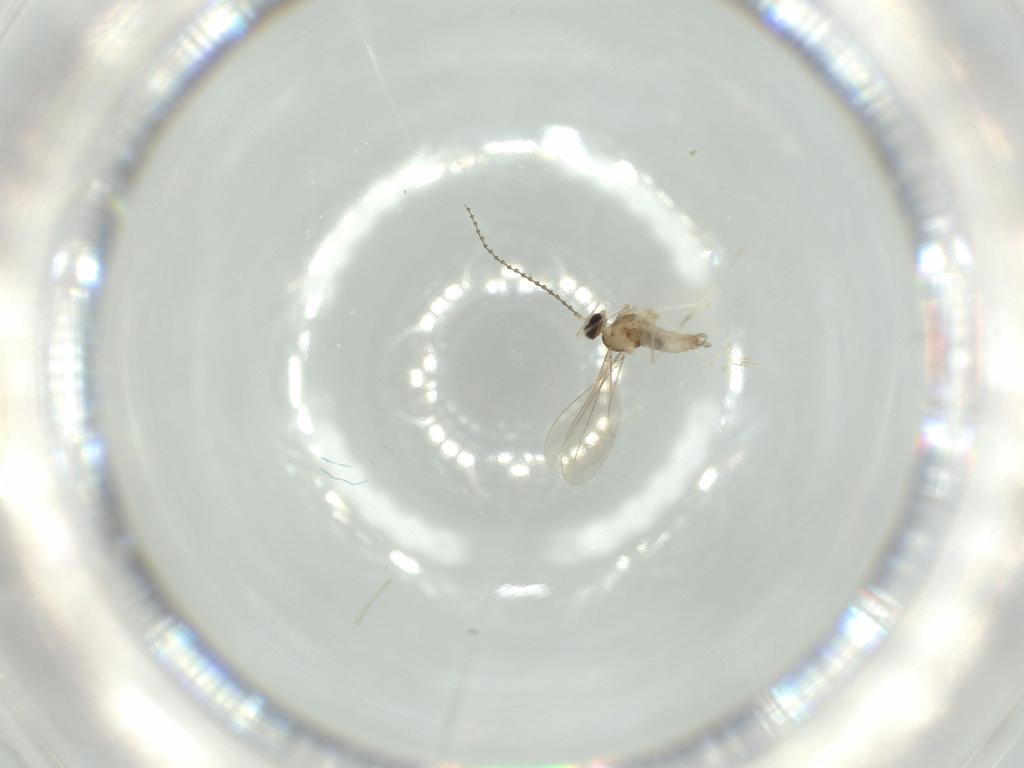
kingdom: Animalia
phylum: Arthropoda
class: Insecta
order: Diptera
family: Cecidomyiidae
